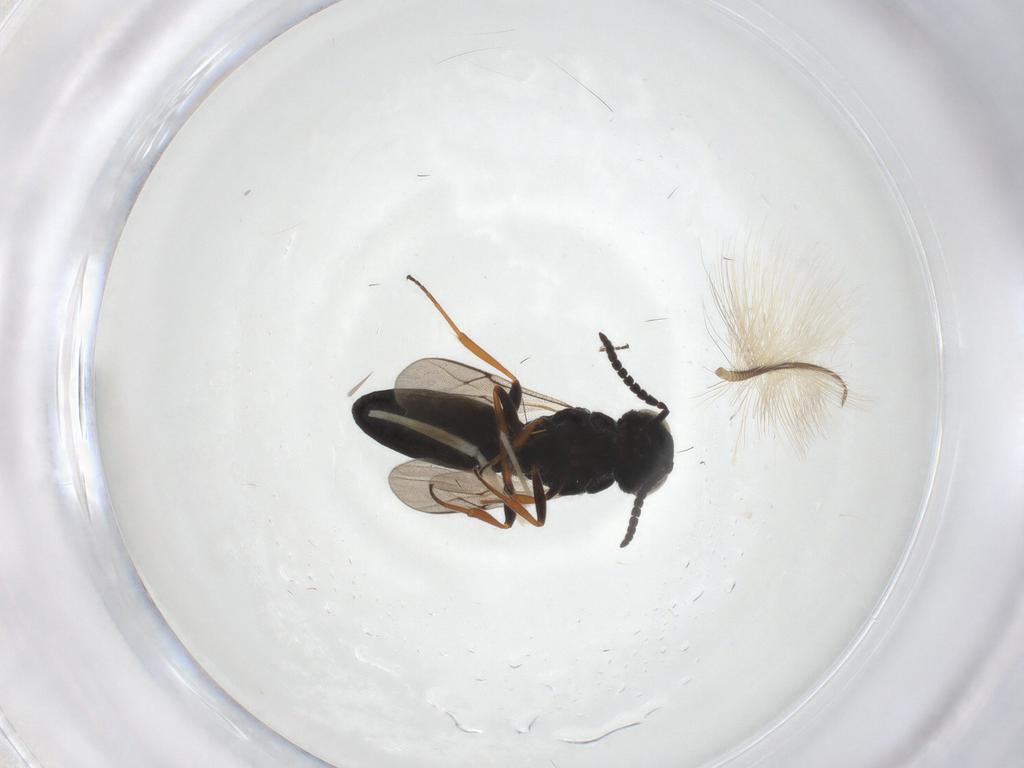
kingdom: Animalia
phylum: Arthropoda
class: Insecta
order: Hymenoptera
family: Scelionidae
